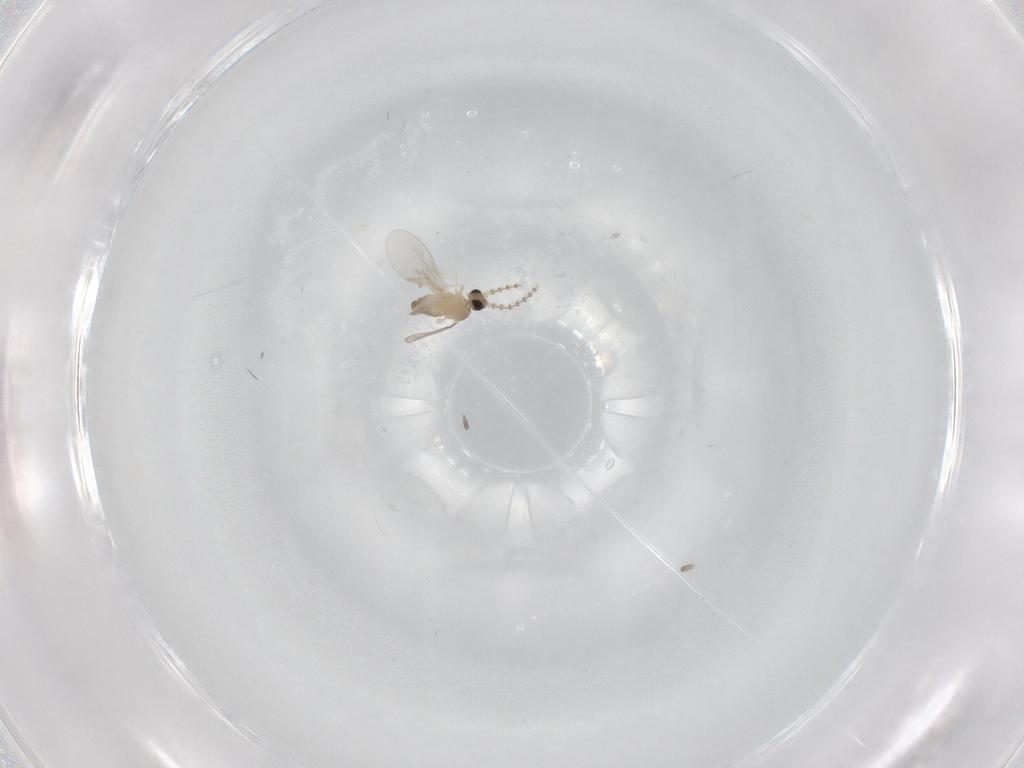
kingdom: Animalia
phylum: Arthropoda
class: Insecta
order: Diptera
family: Cecidomyiidae
